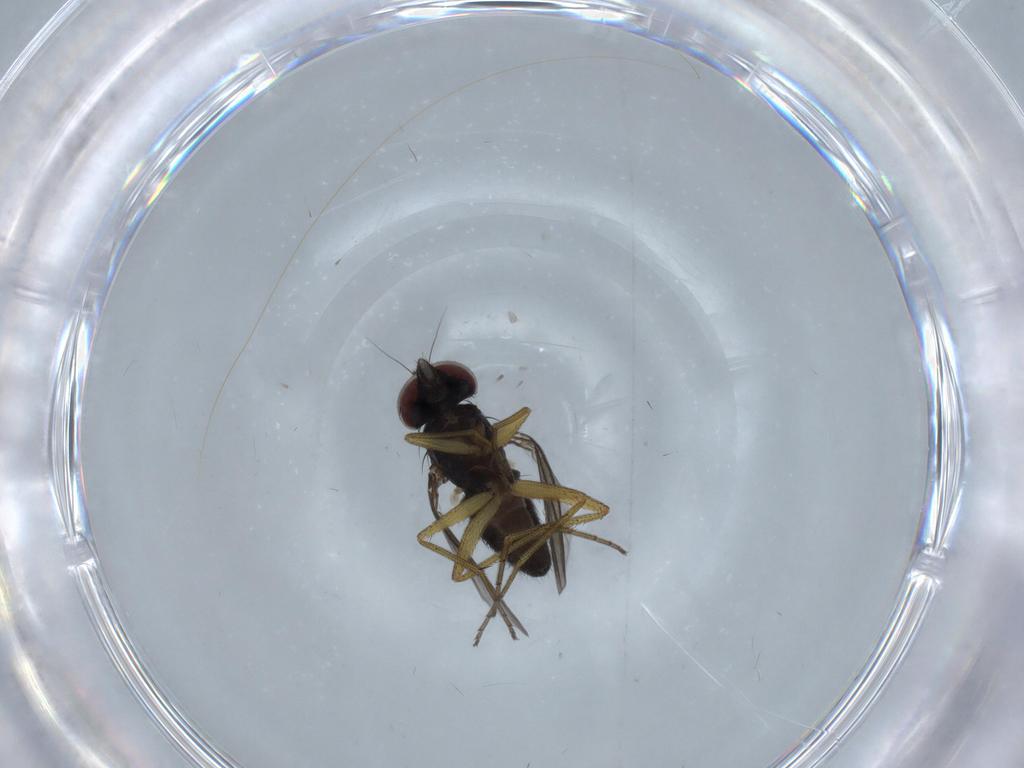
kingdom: Animalia
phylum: Arthropoda
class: Insecta
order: Diptera
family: Dolichopodidae
